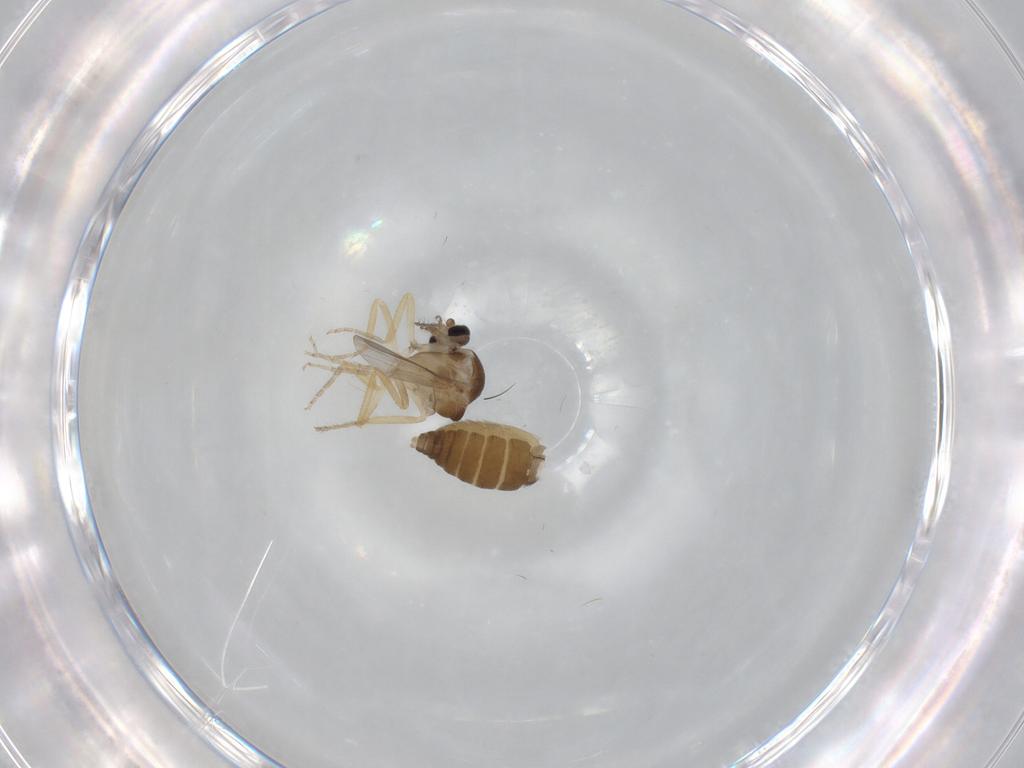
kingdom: Animalia
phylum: Arthropoda
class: Insecta
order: Diptera
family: Ceratopogonidae
